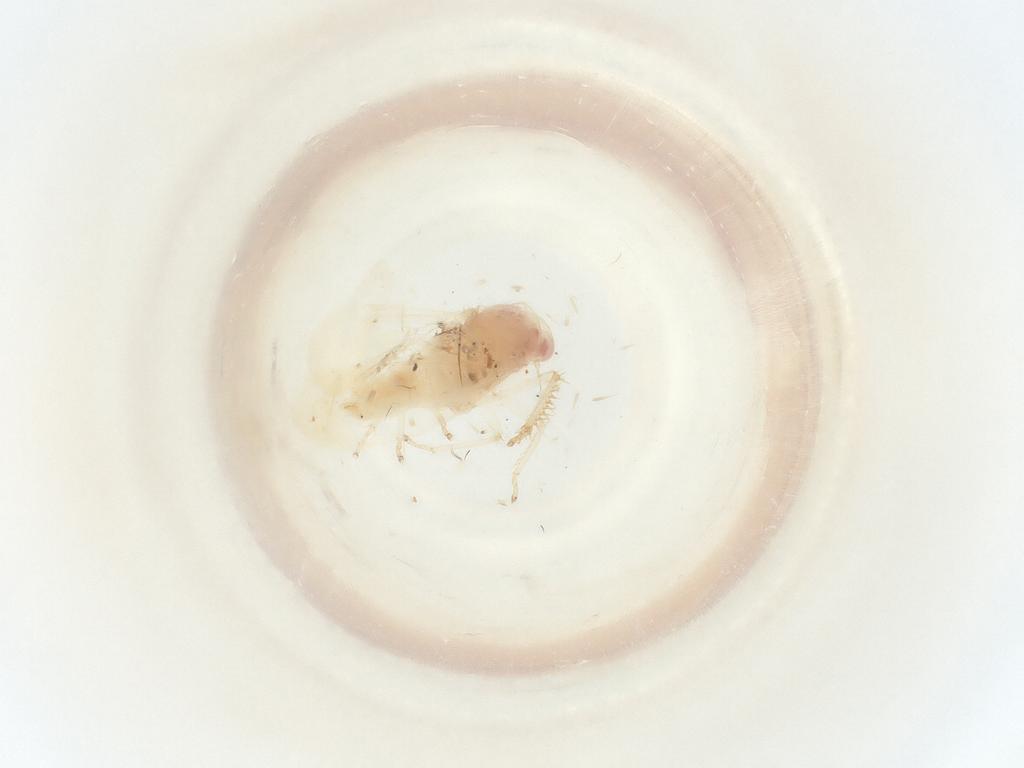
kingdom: Animalia
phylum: Arthropoda
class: Insecta
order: Hemiptera
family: Cicadellidae
